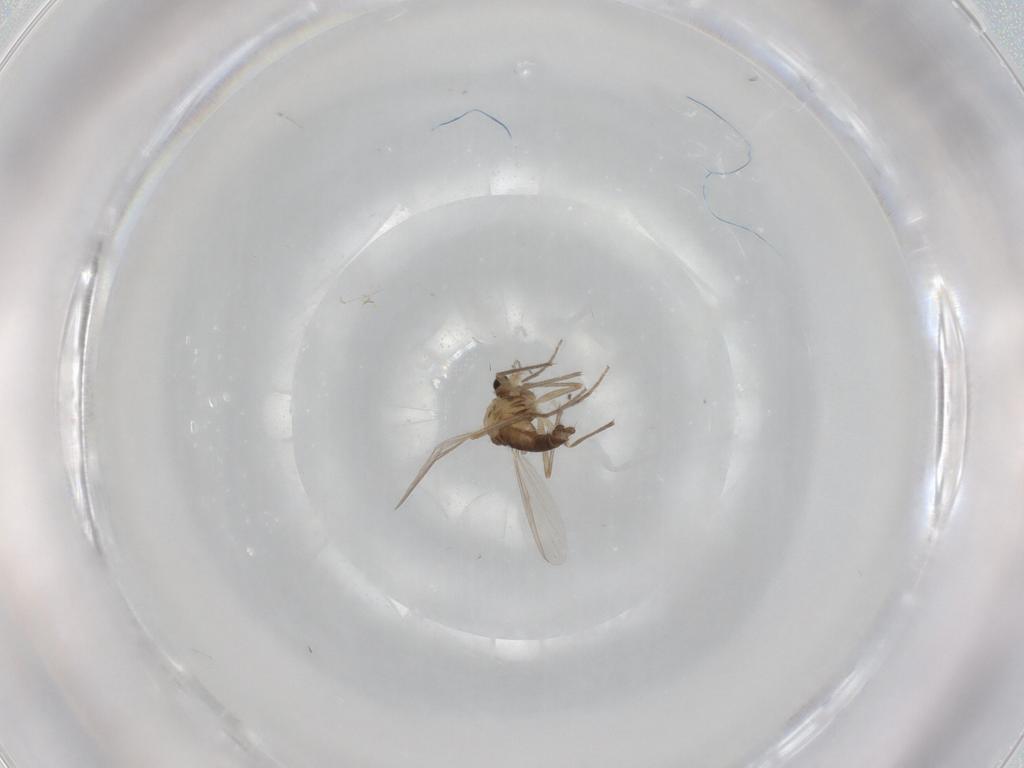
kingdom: Animalia
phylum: Arthropoda
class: Insecta
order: Diptera
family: Chironomidae
